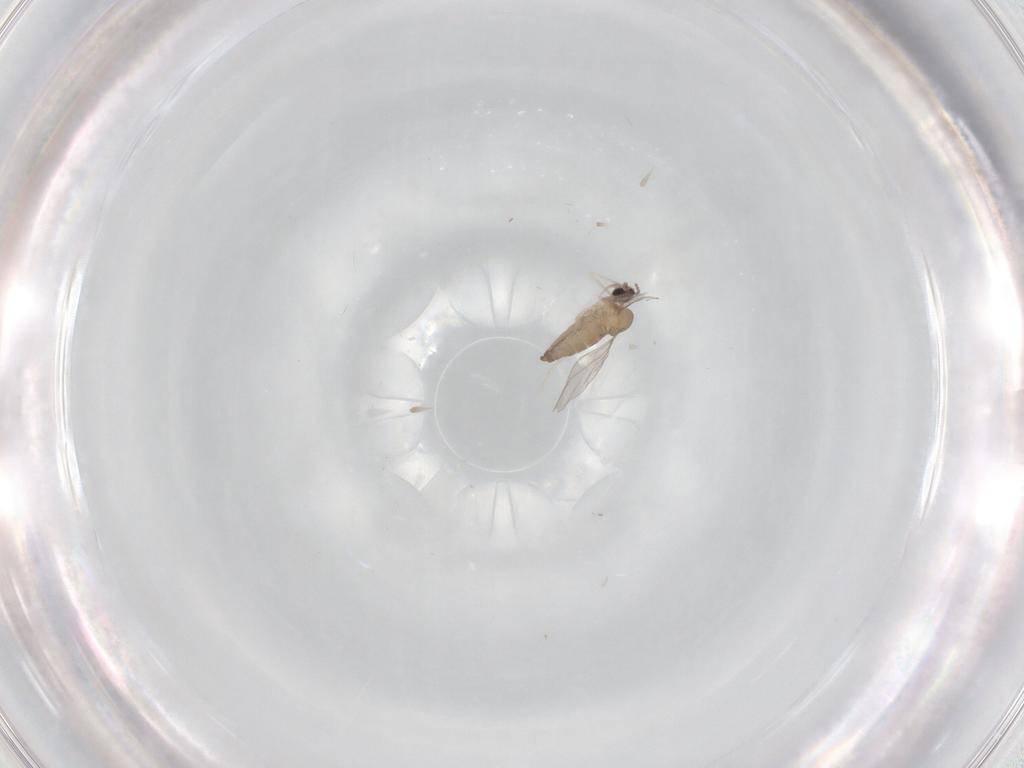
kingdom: Animalia
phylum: Arthropoda
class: Insecta
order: Diptera
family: Cecidomyiidae
